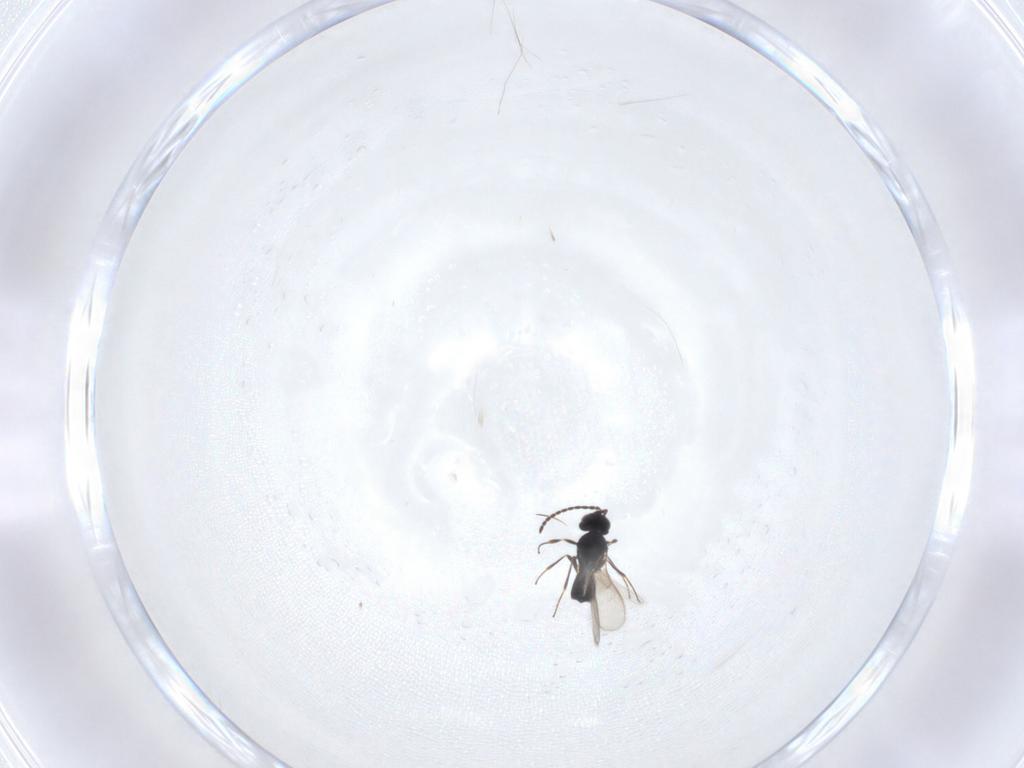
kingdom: Animalia
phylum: Arthropoda
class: Insecta
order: Hymenoptera
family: Scelionidae
